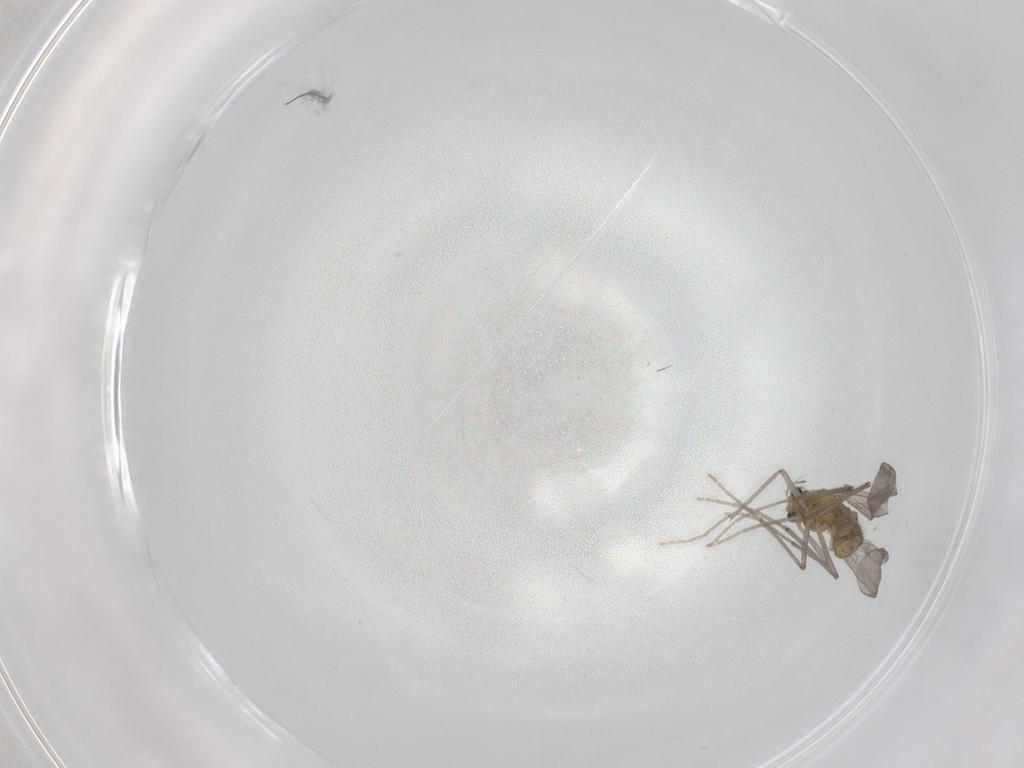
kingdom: Animalia
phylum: Arthropoda
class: Insecta
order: Diptera
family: Chironomidae
